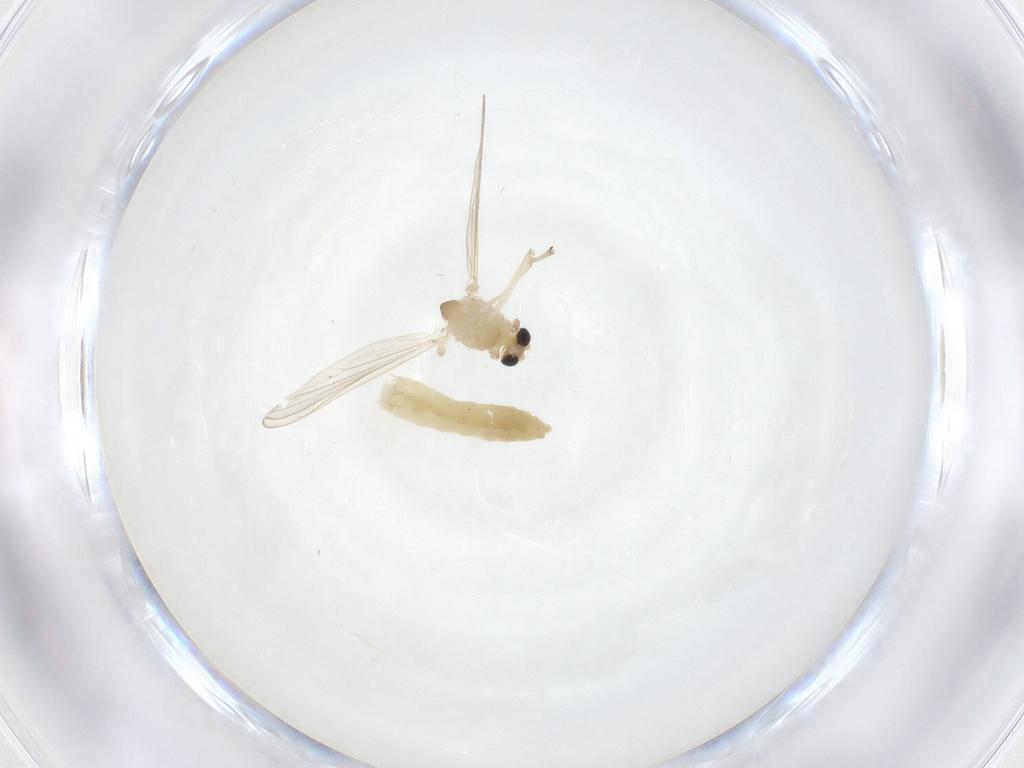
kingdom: Animalia
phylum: Arthropoda
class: Insecta
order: Diptera
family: Chironomidae
